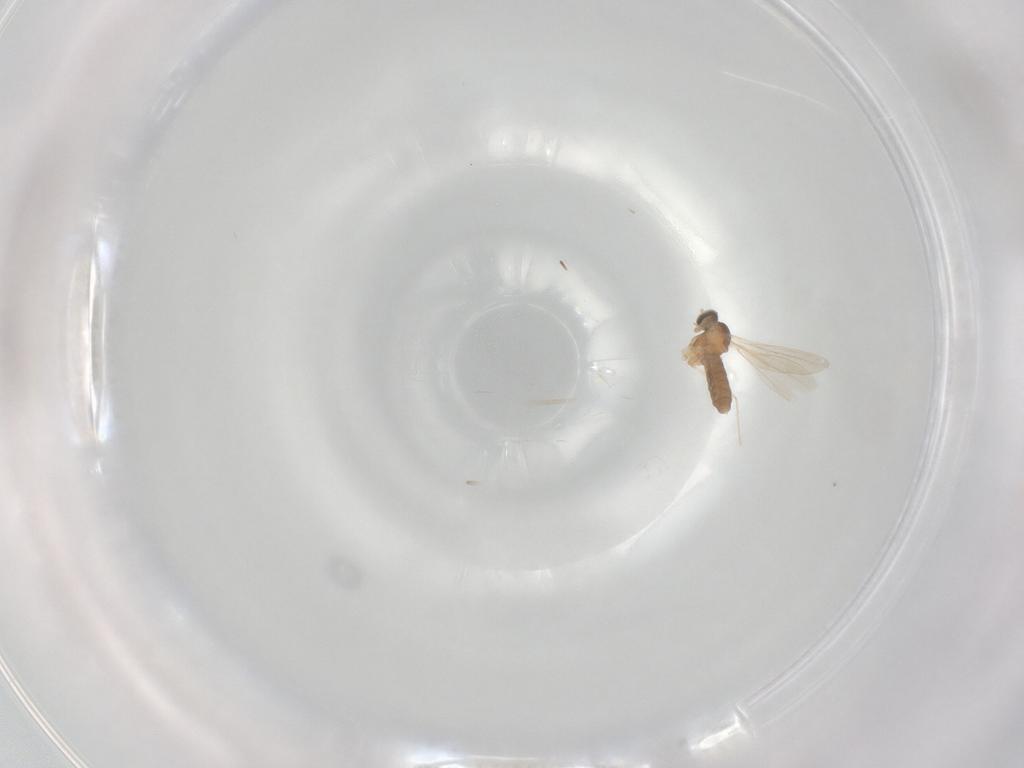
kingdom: Animalia
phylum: Arthropoda
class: Insecta
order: Diptera
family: Cecidomyiidae
